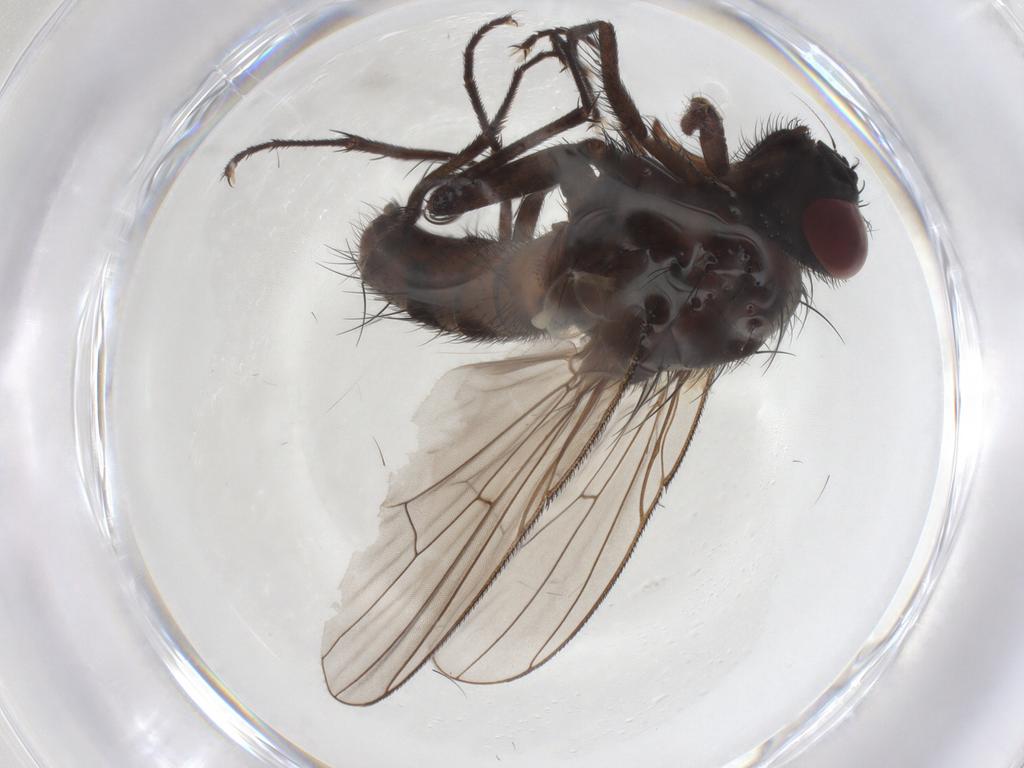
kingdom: Animalia
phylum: Arthropoda
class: Insecta
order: Diptera
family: Muscidae
